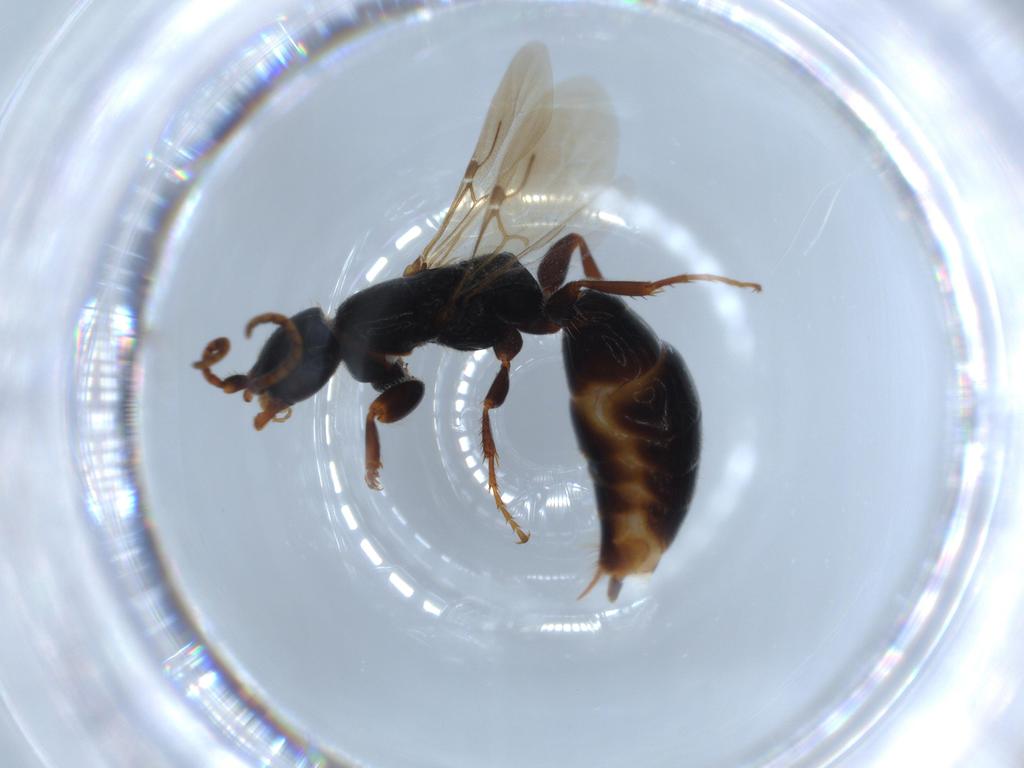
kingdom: Animalia
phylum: Arthropoda
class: Insecta
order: Hymenoptera
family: Bethylidae
